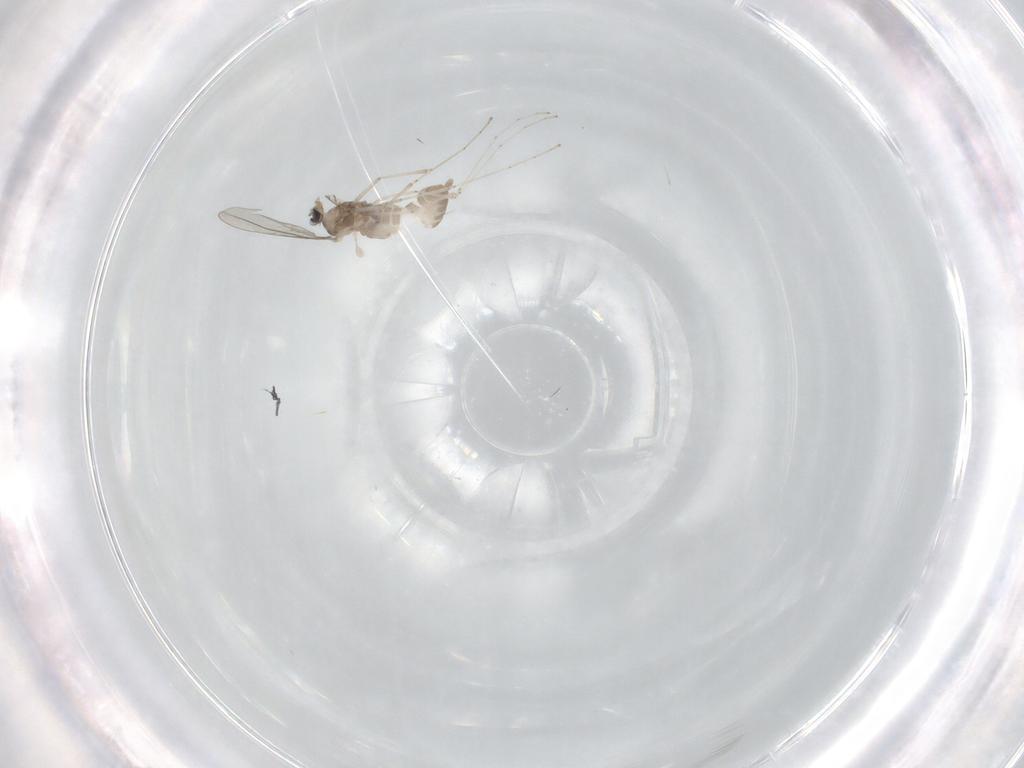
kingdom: Animalia
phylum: Arthropoda
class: Insecta
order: Diptera
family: Cecidomyiidae
